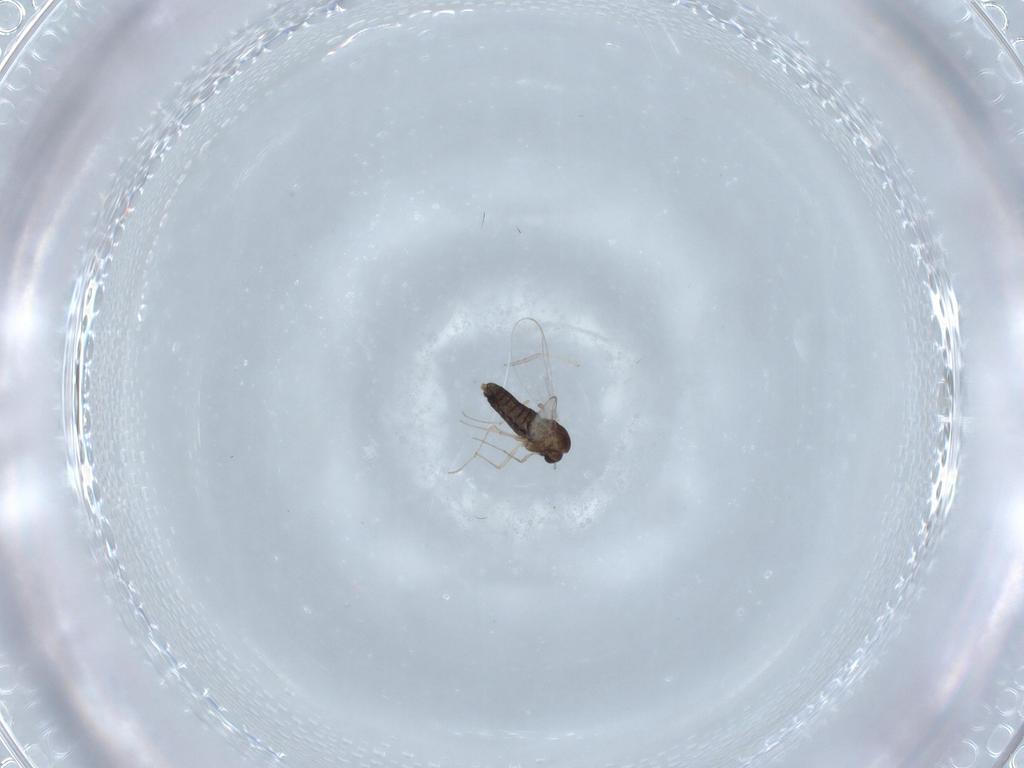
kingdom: Animalia
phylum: Arthropoda
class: Insecta
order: Diptera
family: Chironomidae
